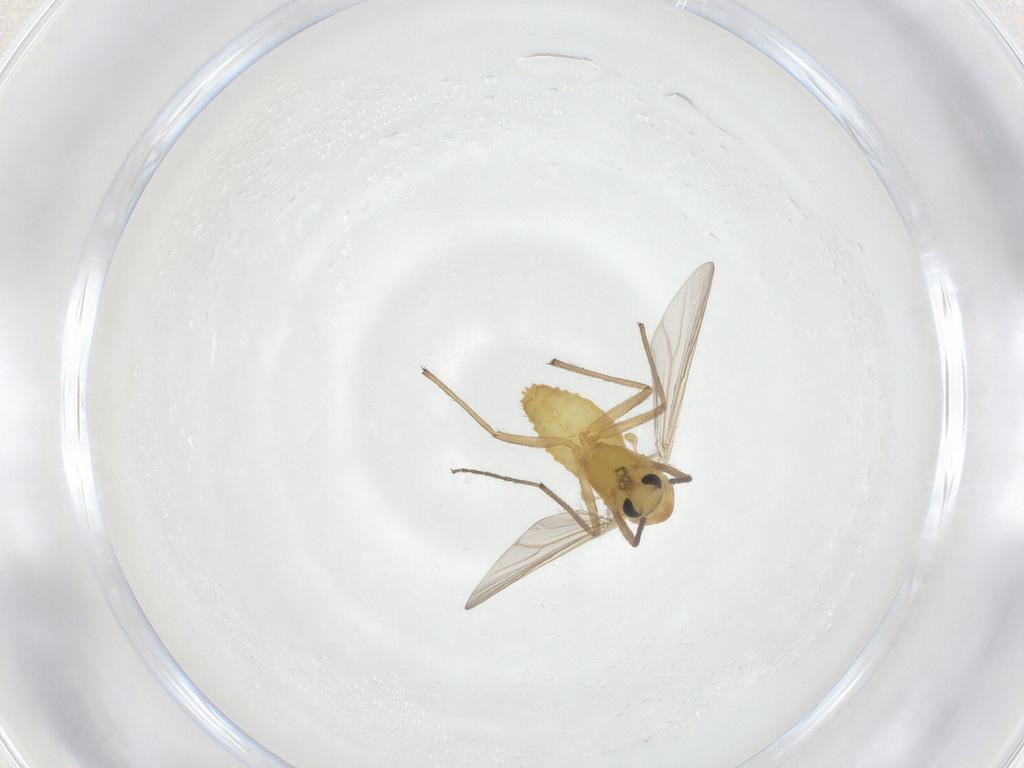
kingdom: Animalia
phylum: Arthropoda
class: Insecta
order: Diptera
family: Chironomidae
